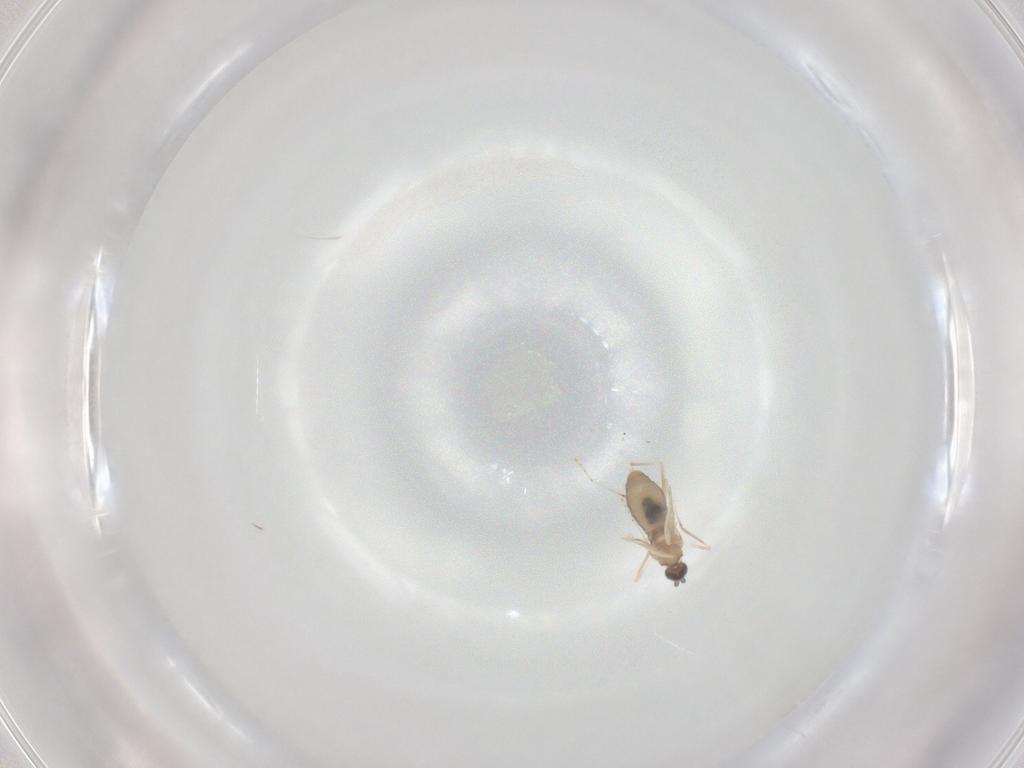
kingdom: Animalia
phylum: Arthropoda
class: Insecta
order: Diptera
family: Cecidomyiidae
